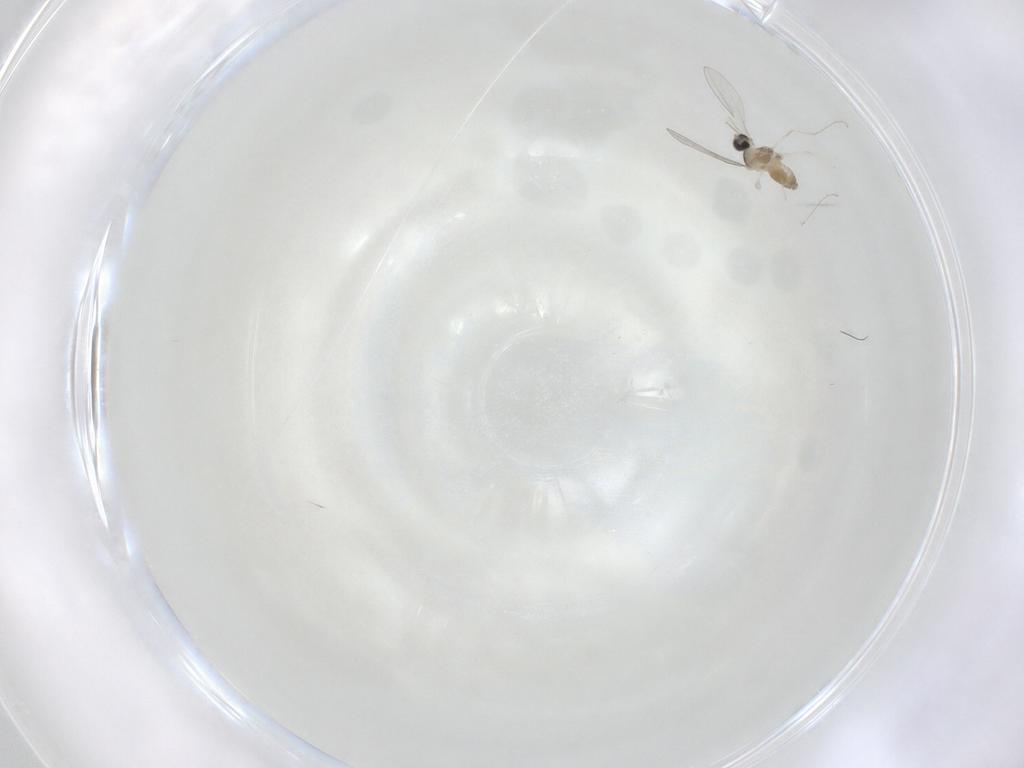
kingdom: Animalia
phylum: Arthropoda
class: Insecta
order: Diptera
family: Cecidomyiidae
